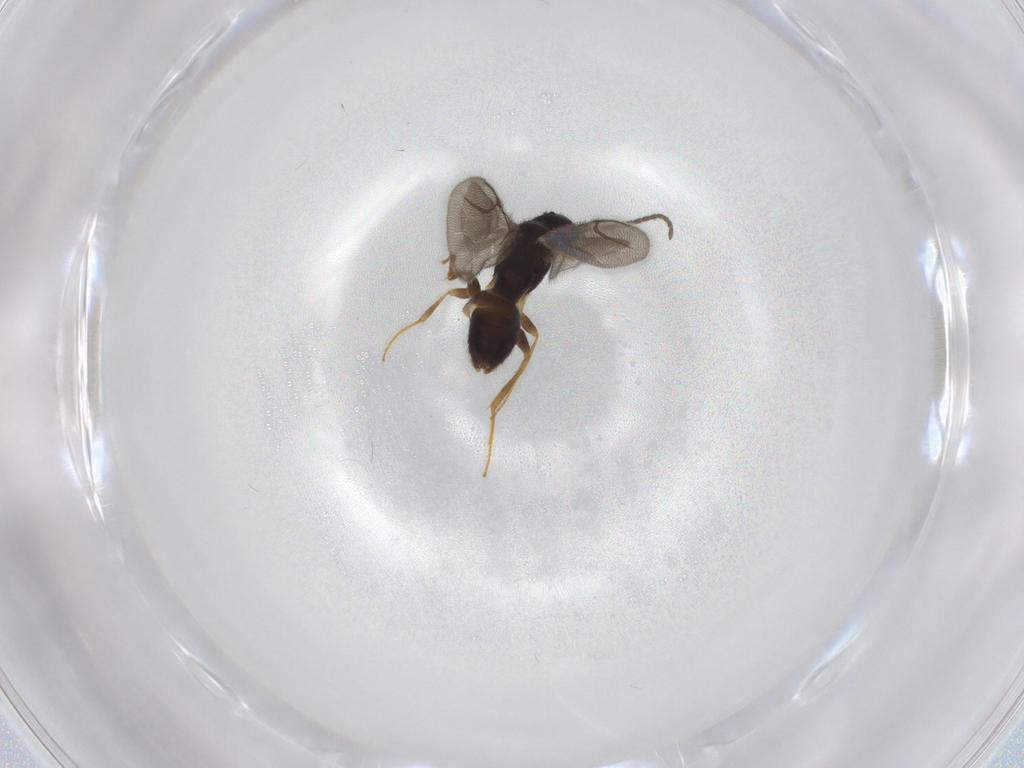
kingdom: Animalia
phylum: Arthropoda
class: Insecta
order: Hymenoptera
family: Bethylidae
